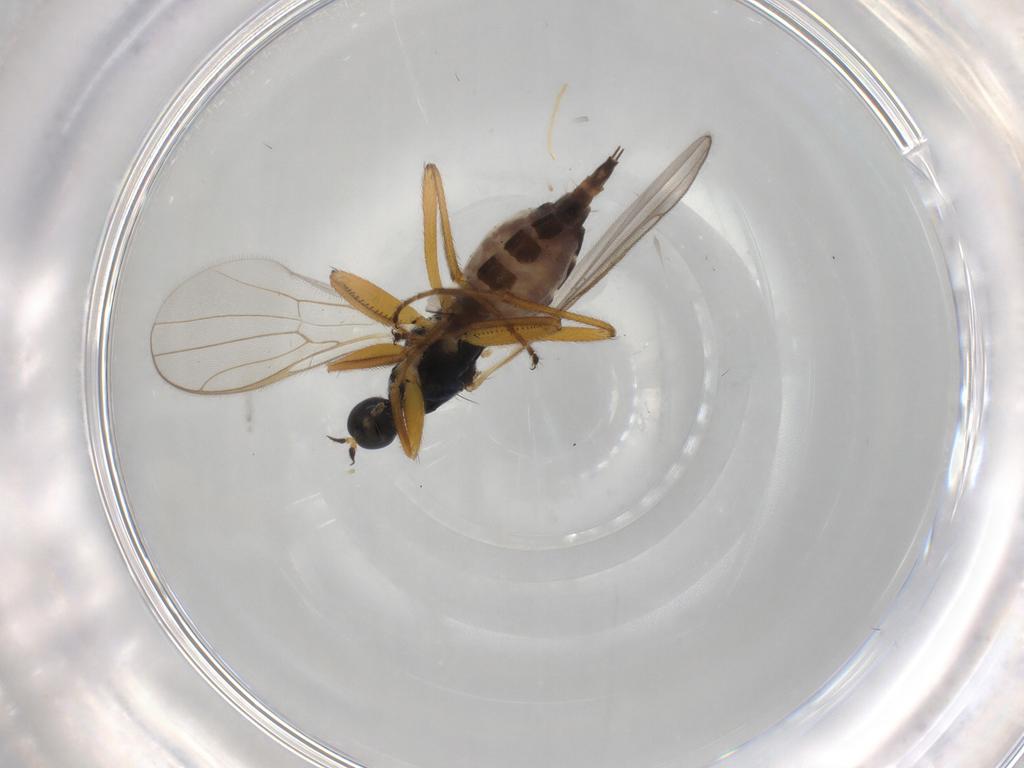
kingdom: Animalia
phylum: Arthropoda
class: Insecta
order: Diptera
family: Hybotidae
